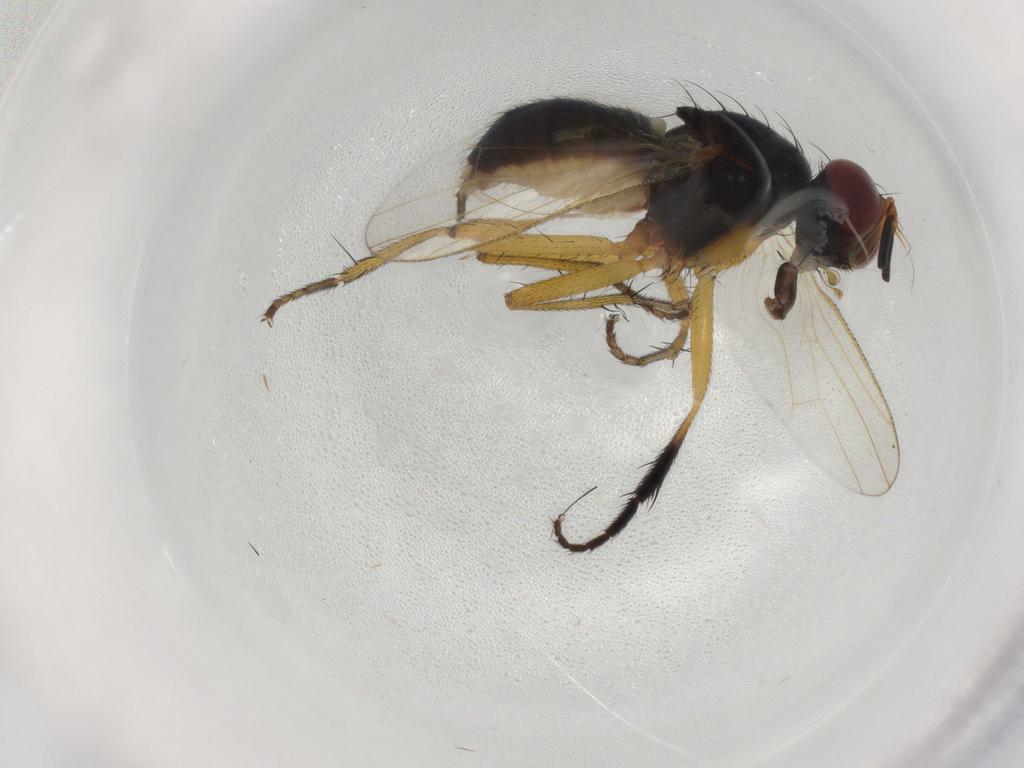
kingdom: Animalia
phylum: Arthropoda
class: Insecta
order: Diptera
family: Muscidae
